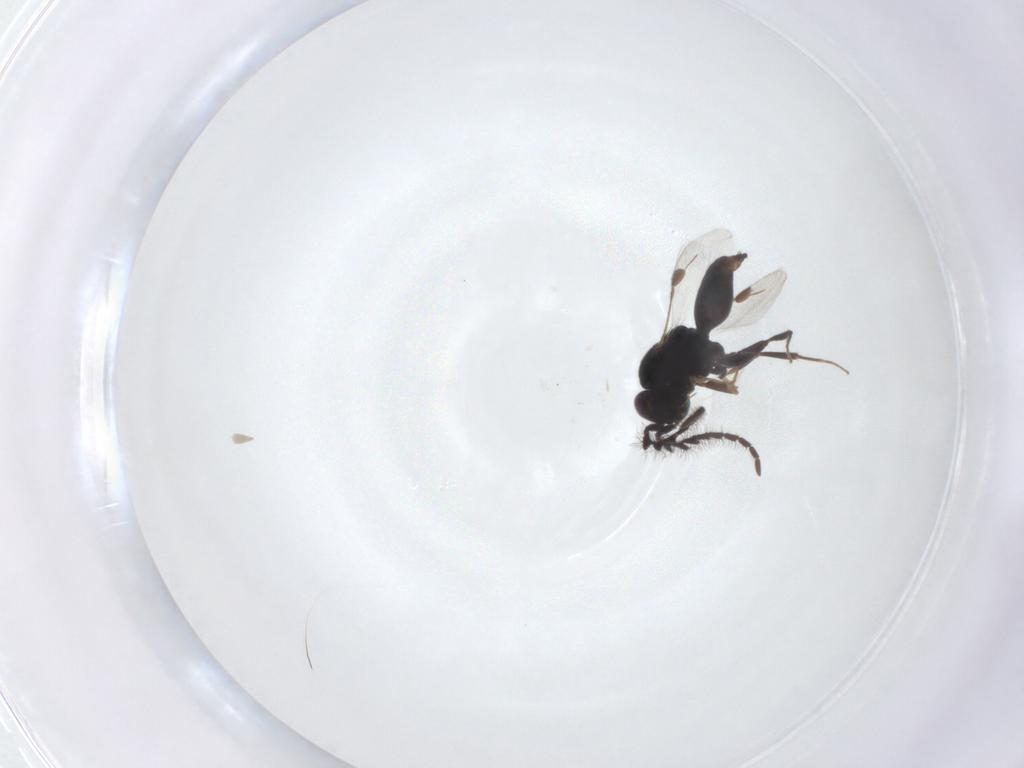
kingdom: Animalia
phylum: Arthropoda
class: Insecta
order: Hymenoptera
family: Megaspilidae
